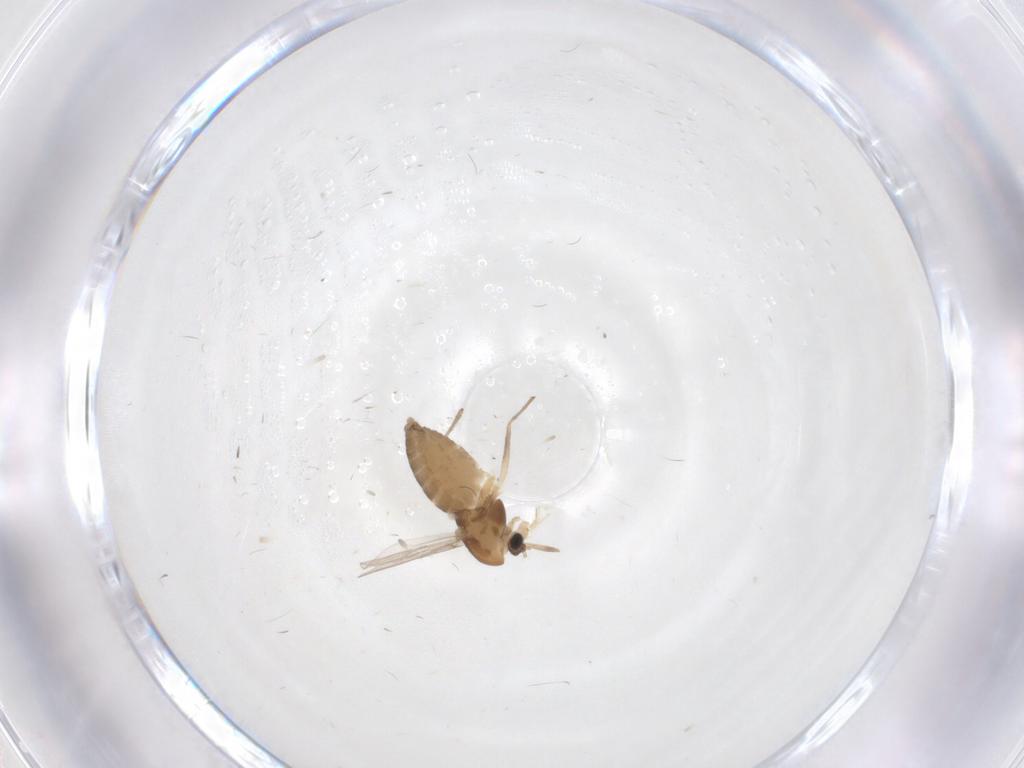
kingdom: Animalia
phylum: Arthropoda
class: Insecta
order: Diptera
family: Chironomidae
